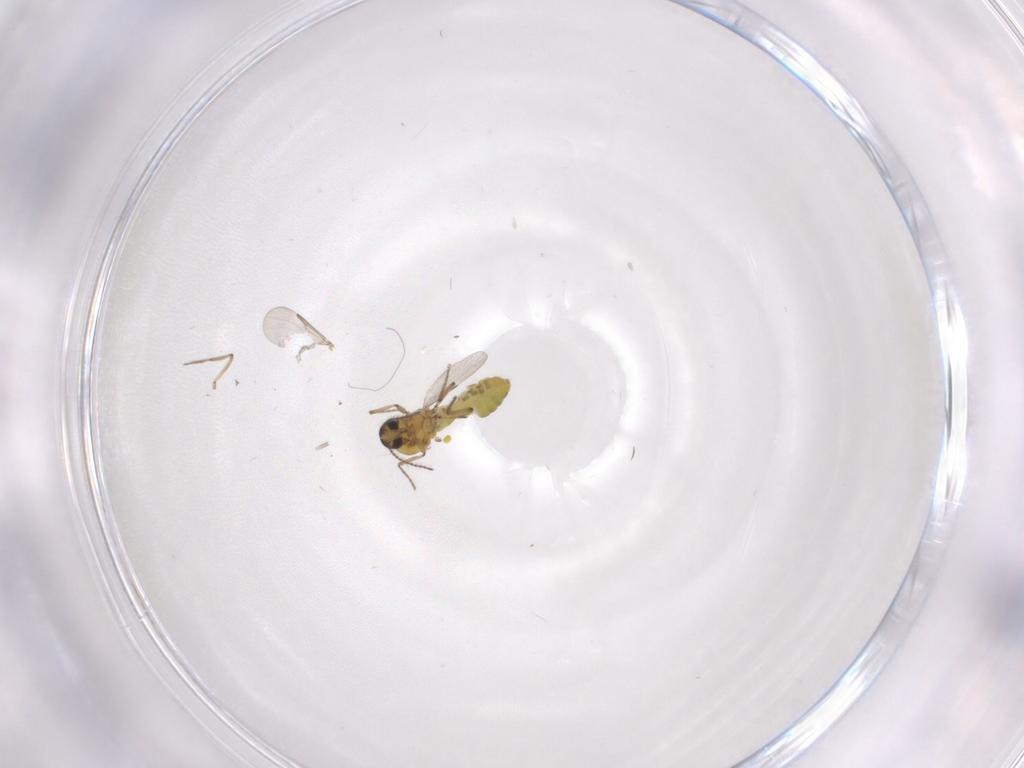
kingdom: Animalia
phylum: Arthropoda
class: Insecta
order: Diptera
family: Ceratopogonidae
